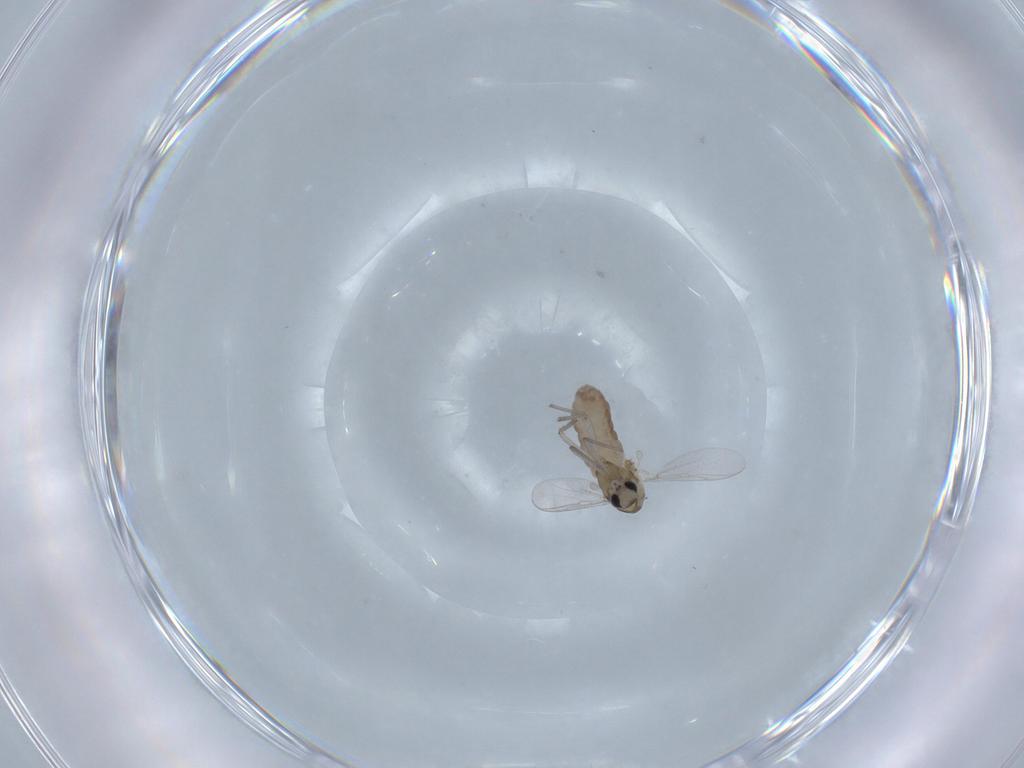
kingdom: Animalia
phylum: Arthropoda
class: Insecta
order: Diptera
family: Chironomidae
